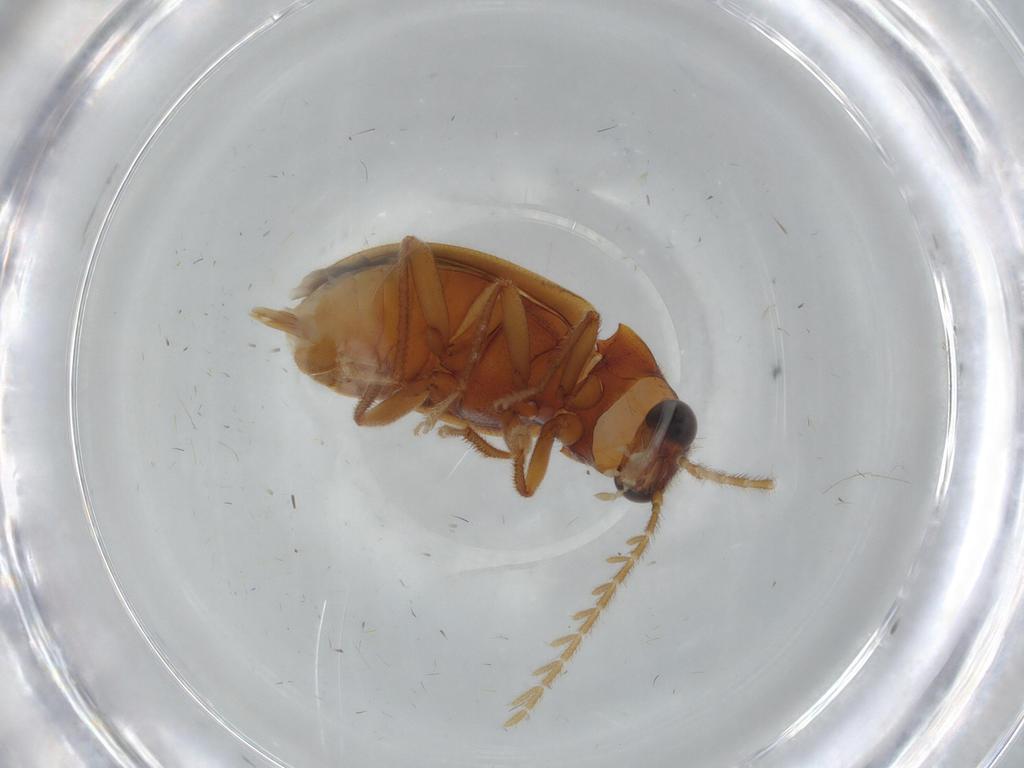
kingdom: Animalia
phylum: Arthropoda
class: Insecta
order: Coleoptera
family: Ptilodactylidae
